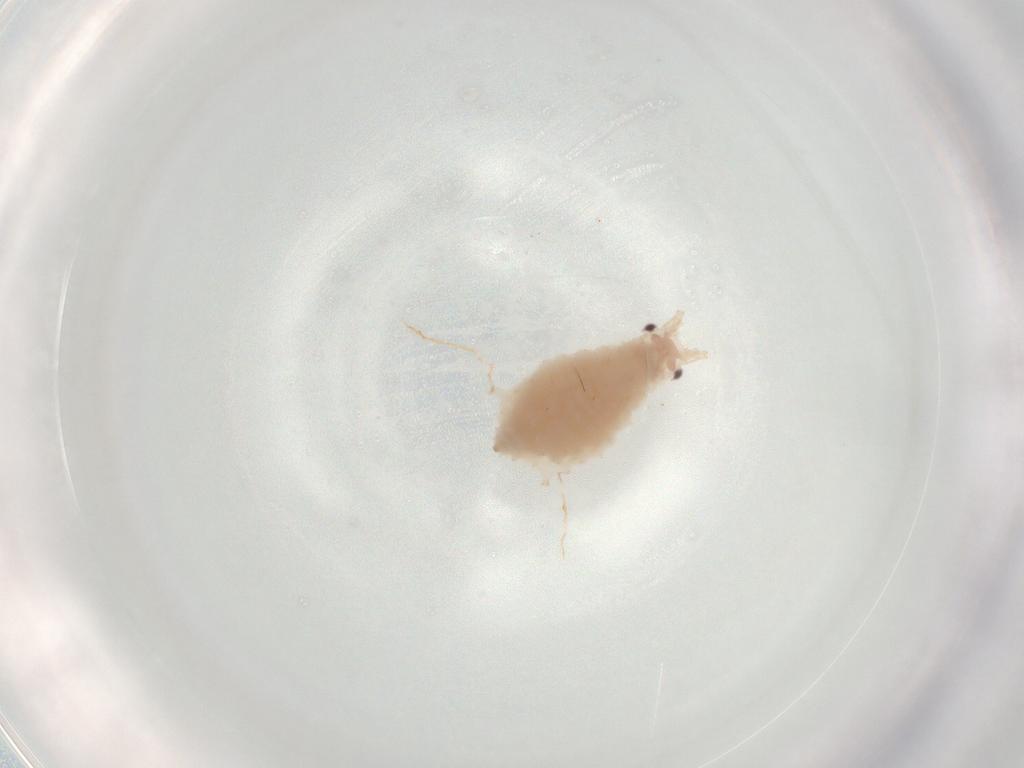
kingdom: Animalia
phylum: Arthropoda
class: Insecta
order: Hemiptera
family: Aphididae
